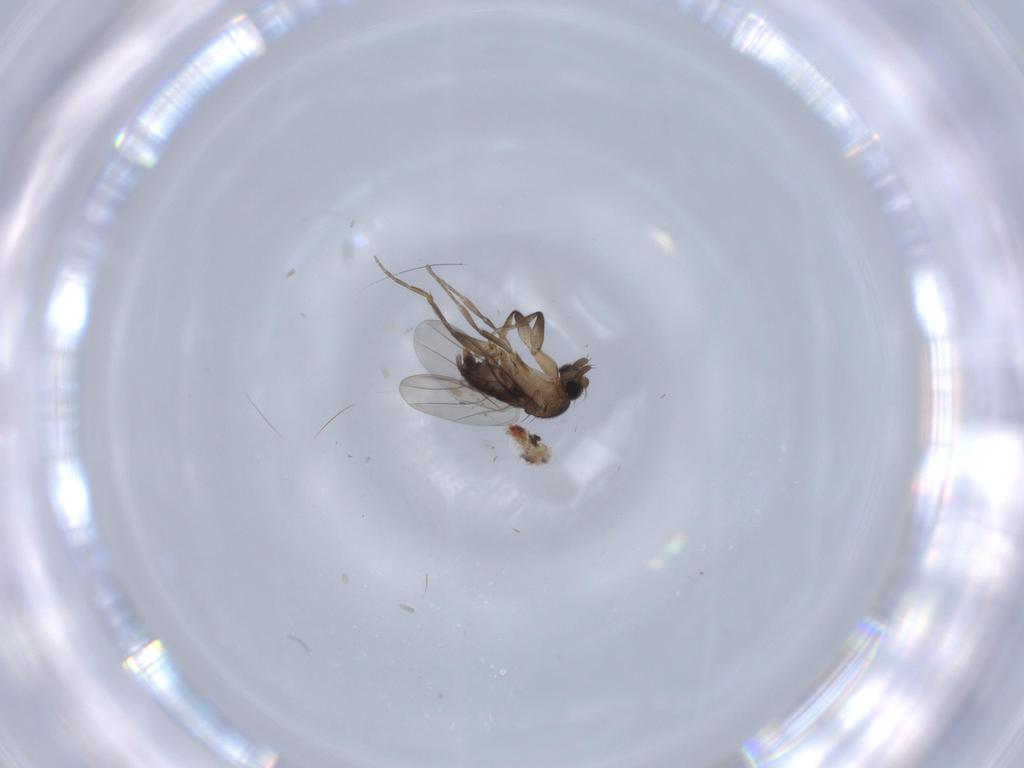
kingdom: Animalia
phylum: Arthropoda
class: Insecta
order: Diptera
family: Phoridae
